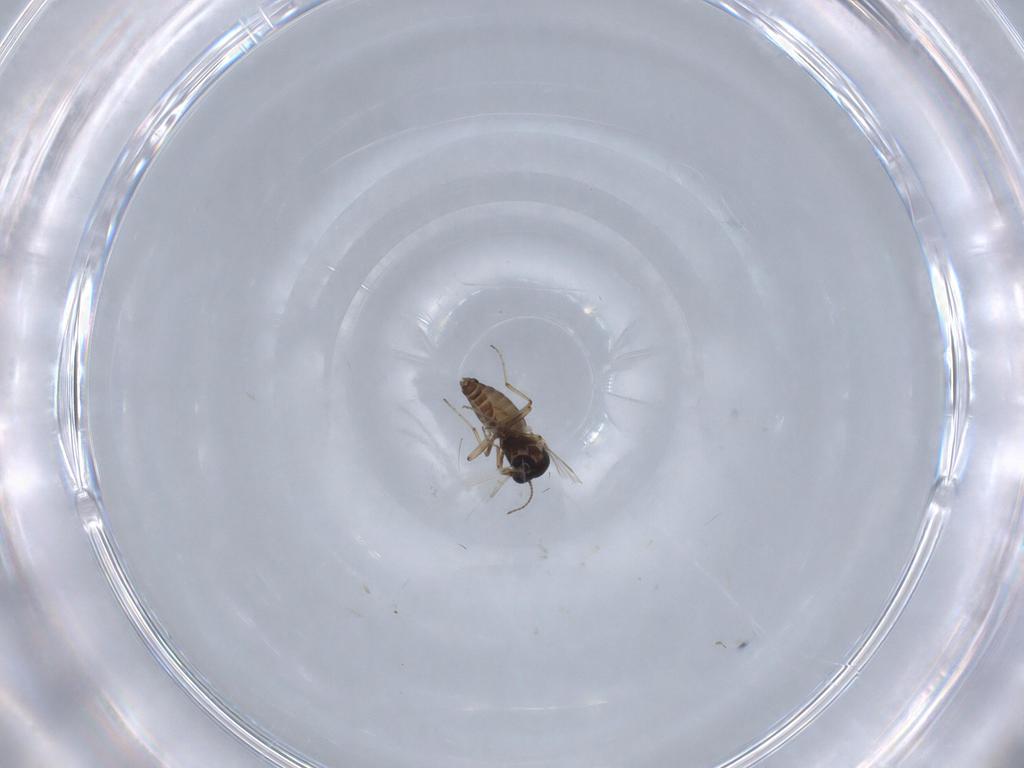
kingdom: Animalia
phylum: Arthropoda
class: Insecta
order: Diptera
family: Ceratopogonidae
